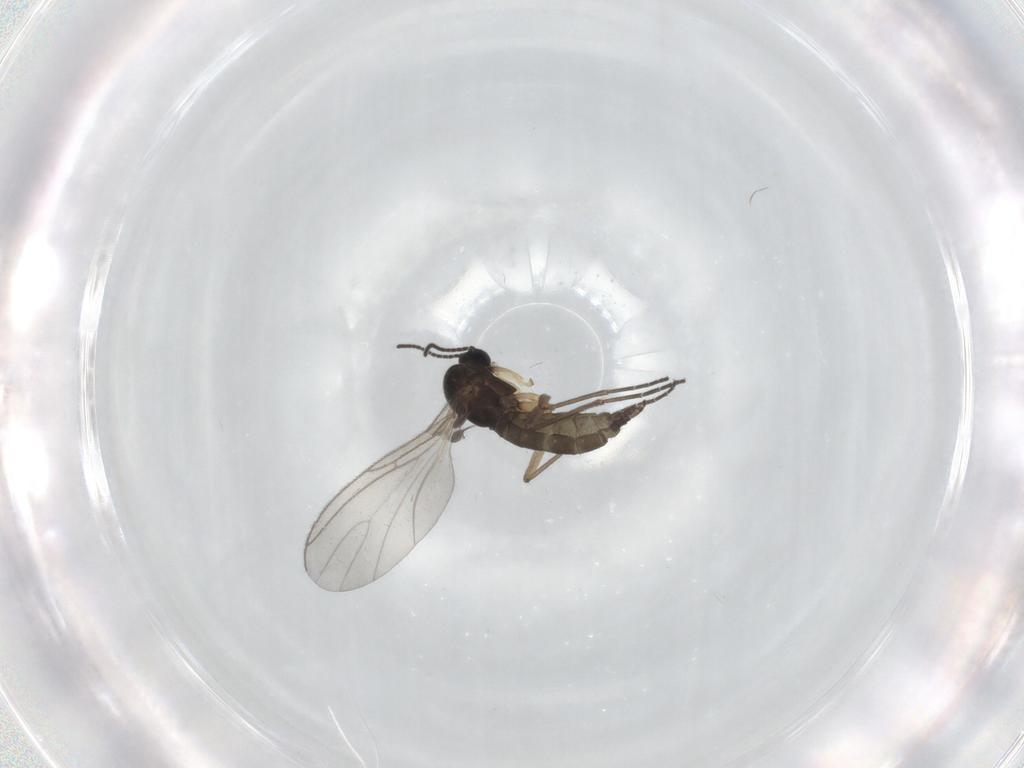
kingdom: Animalia
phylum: Arthropoda
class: Insecta
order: Diptera
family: Sciaridae
